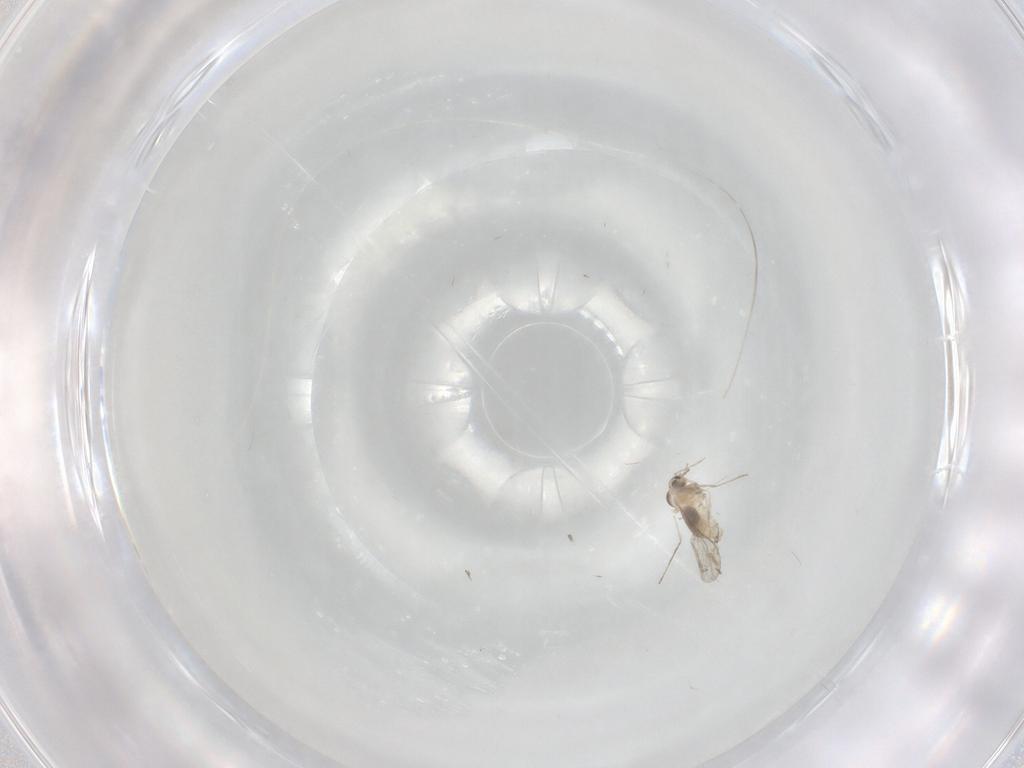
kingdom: Animalia
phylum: Arthropoda
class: Insecta
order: Diptera
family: Cecidomyiidae
